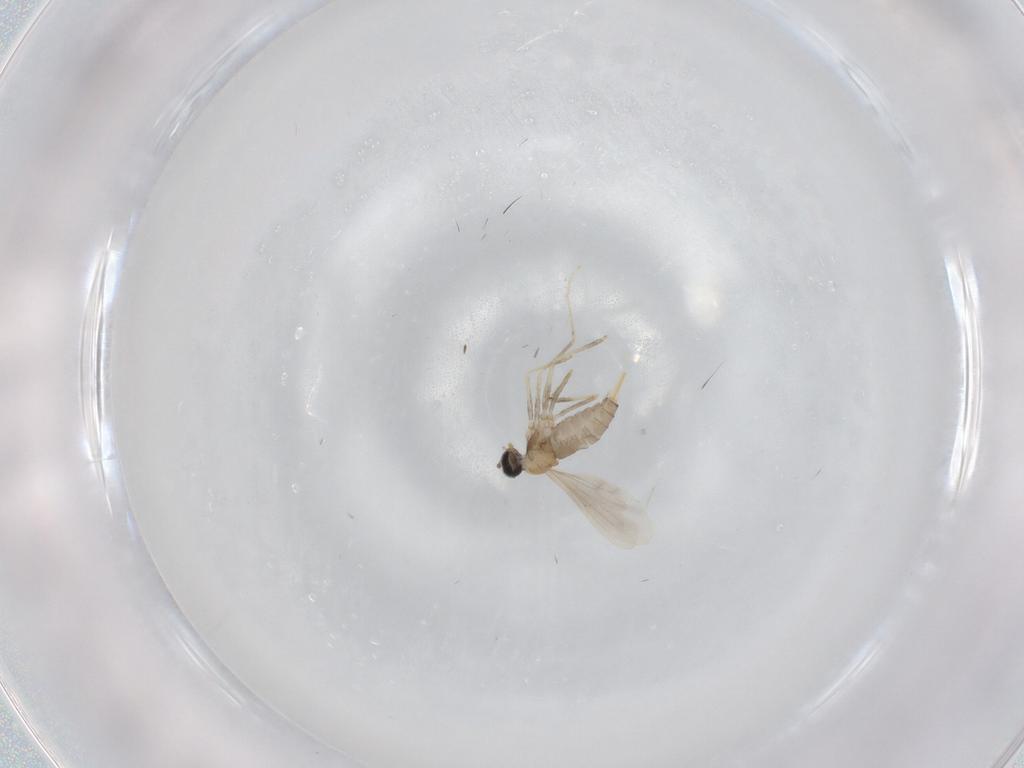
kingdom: Animalia
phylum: Arthropoda
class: Insecta
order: Diptera
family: Cecidomyiidae
